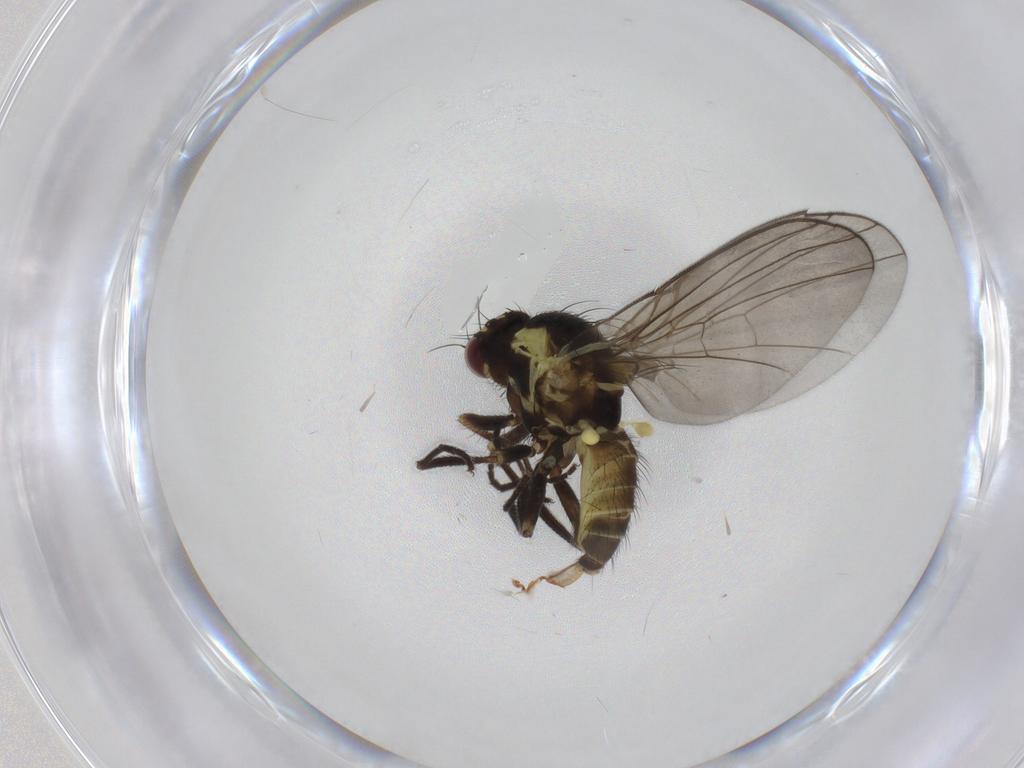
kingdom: Animalia
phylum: Arthropoda
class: Insecta
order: Diptera
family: Agromyzidae
